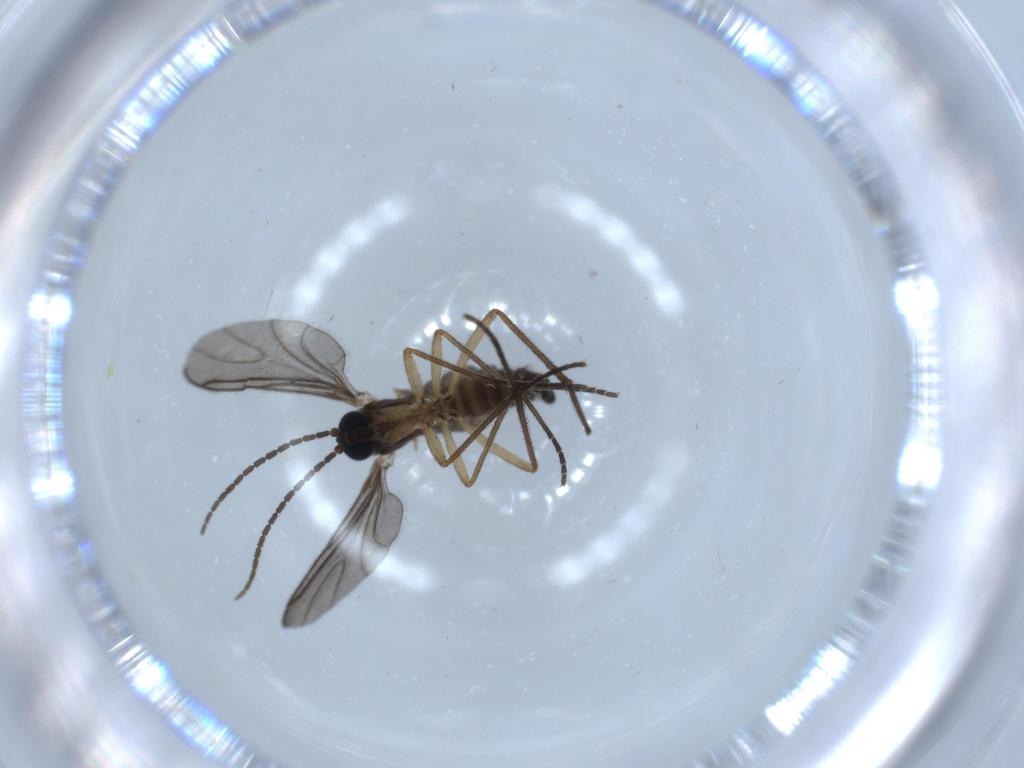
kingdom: Animalia
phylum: Arthropoda
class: Insecta
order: Diptera
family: Sciaridae
